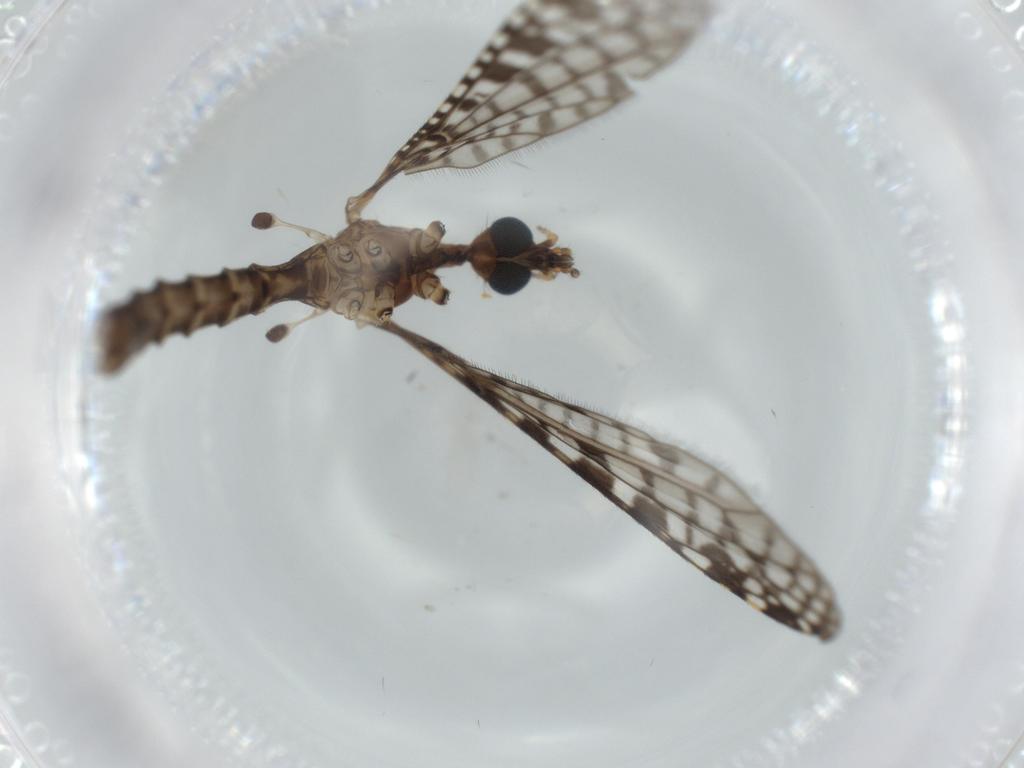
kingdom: Animalia
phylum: Arthropoda
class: Insecta
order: Diptera
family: Limoniidae
